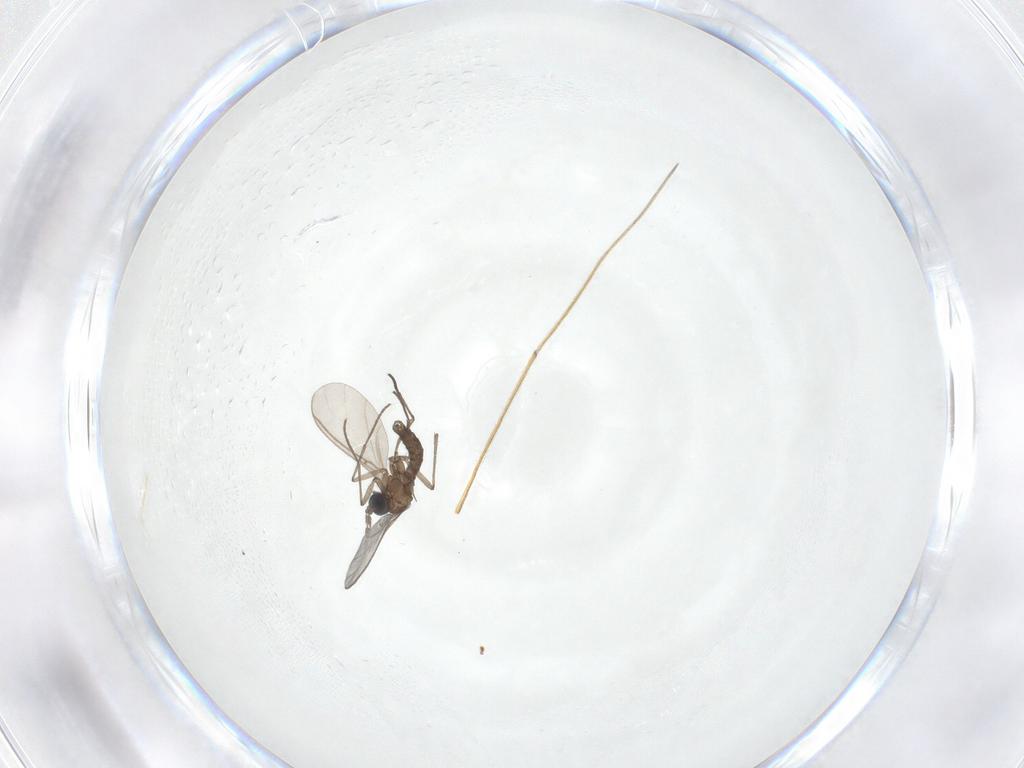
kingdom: Animalia
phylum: Arthropoda
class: Insecta
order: Diptera
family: Sciaridae
